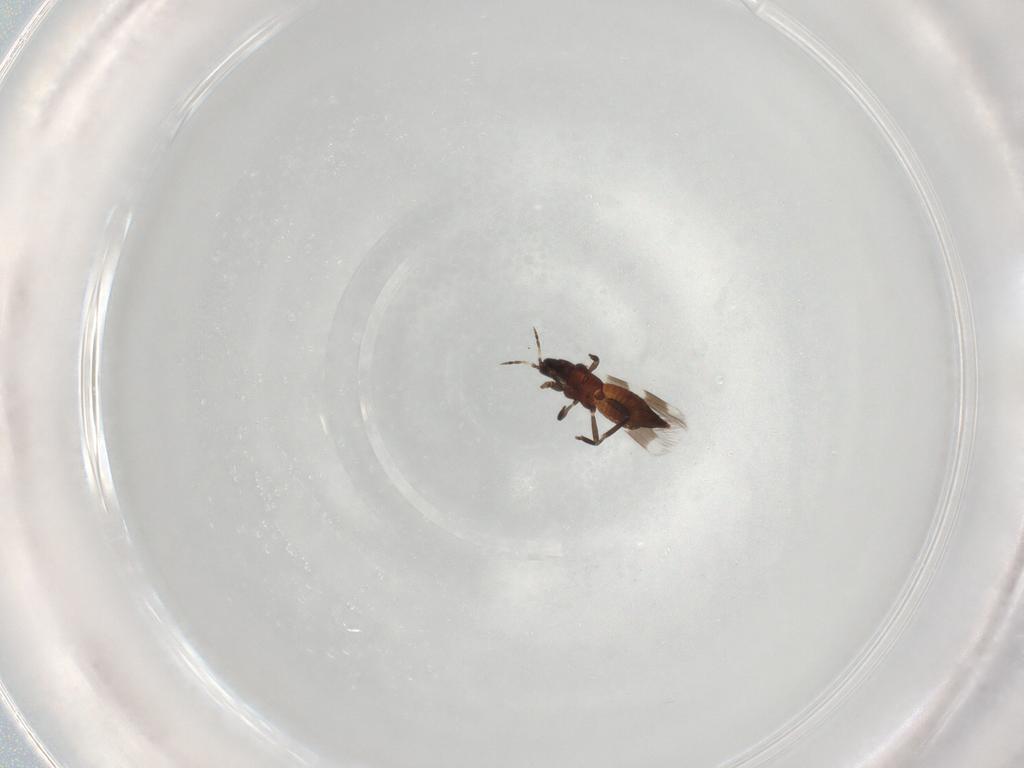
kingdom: Animalia
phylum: Arthropoda
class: Insecta
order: Thysanoptera
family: Aeolothripidae
